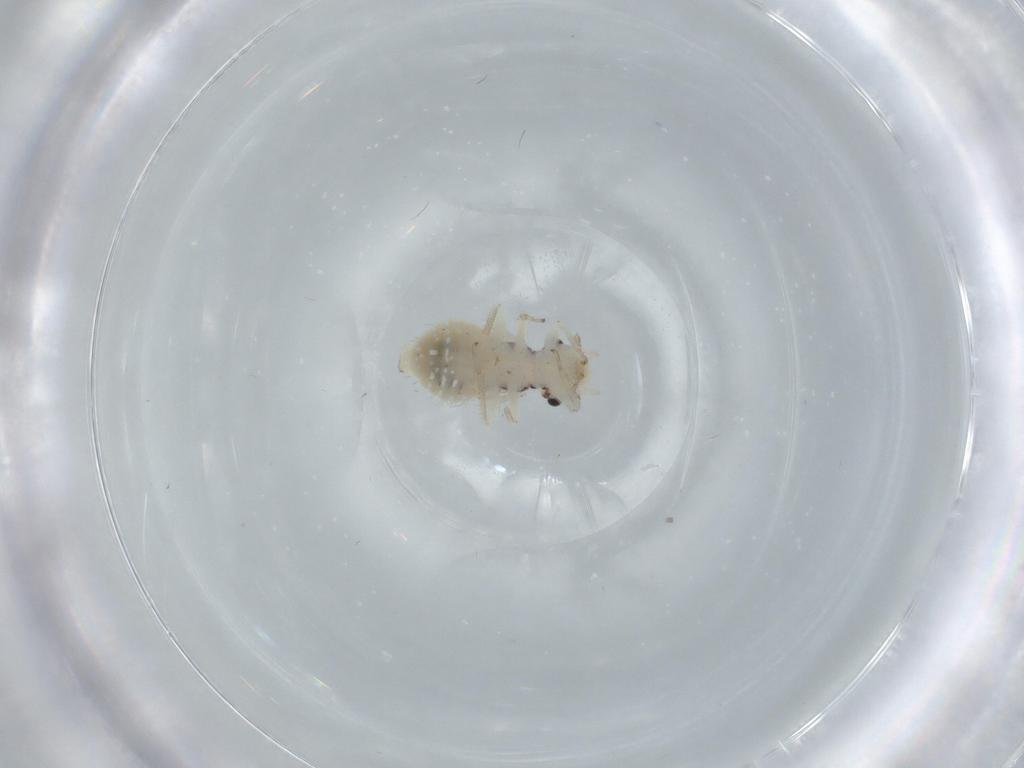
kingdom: Animalia
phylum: Arthropoda
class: Insecta
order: Psocodea
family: Pseudocaeciliidae
